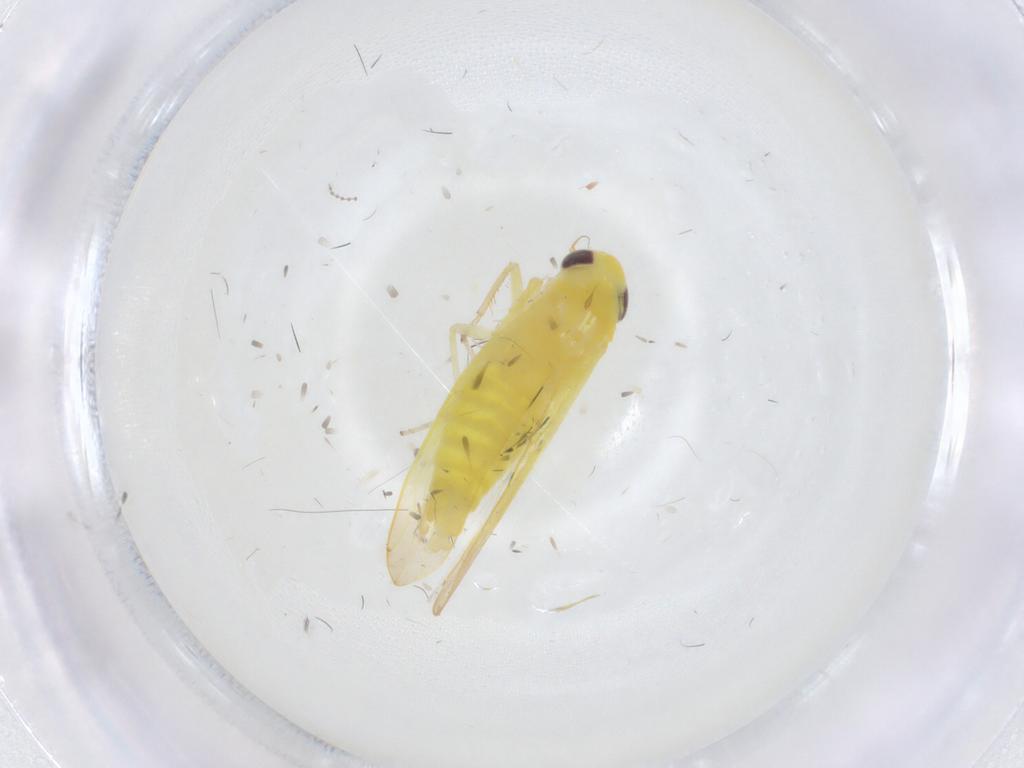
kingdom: Animalia
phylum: Arthropoda
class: Insecta
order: Hemiptera
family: Cicadellidae
